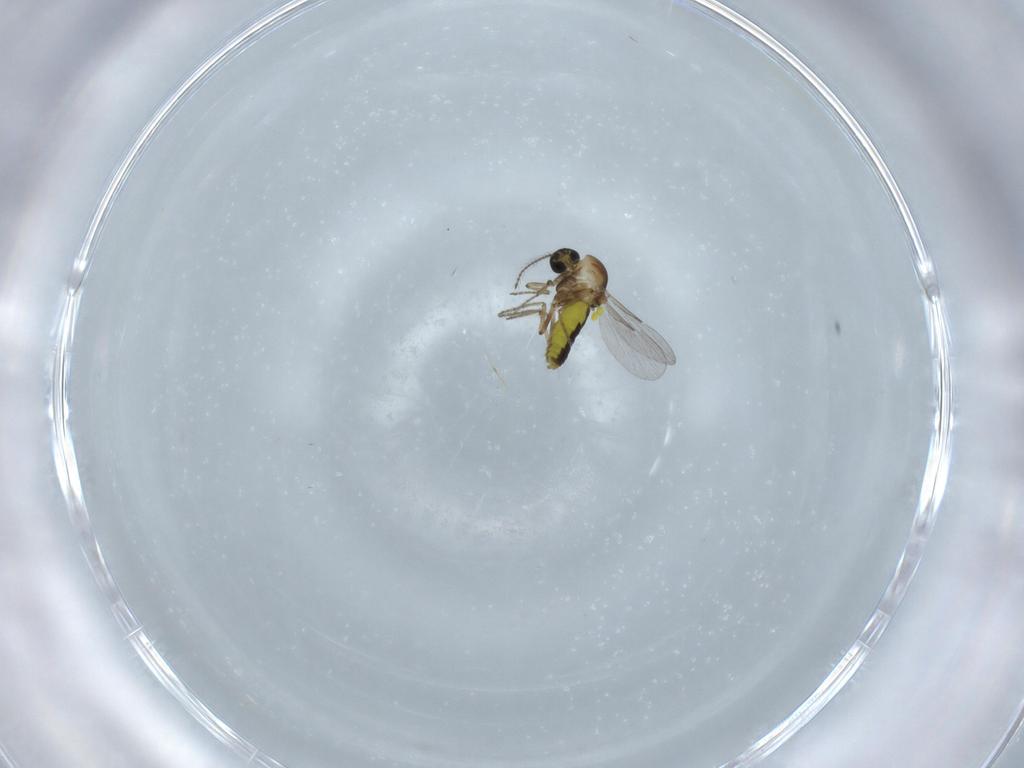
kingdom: Animalia
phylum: Arthropoda
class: Insecta
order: Diptera
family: Ceratopogonidae
